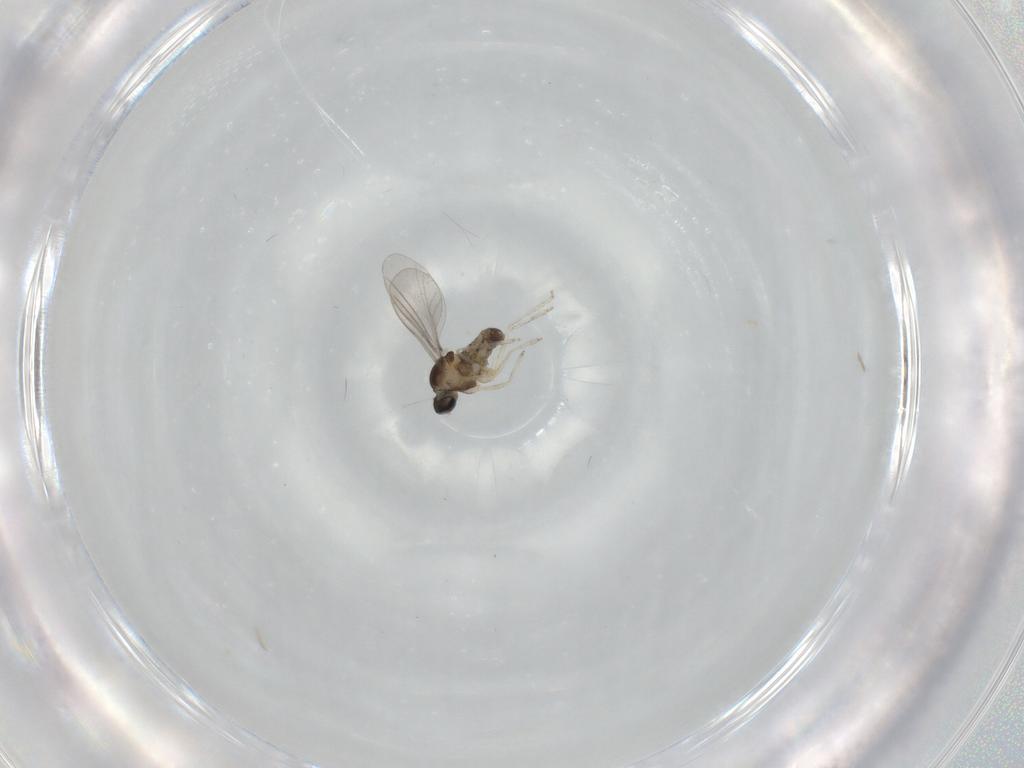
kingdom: Animalia
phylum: Arthropoda
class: Insecta
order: Diptera
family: Cecidomyiidae
